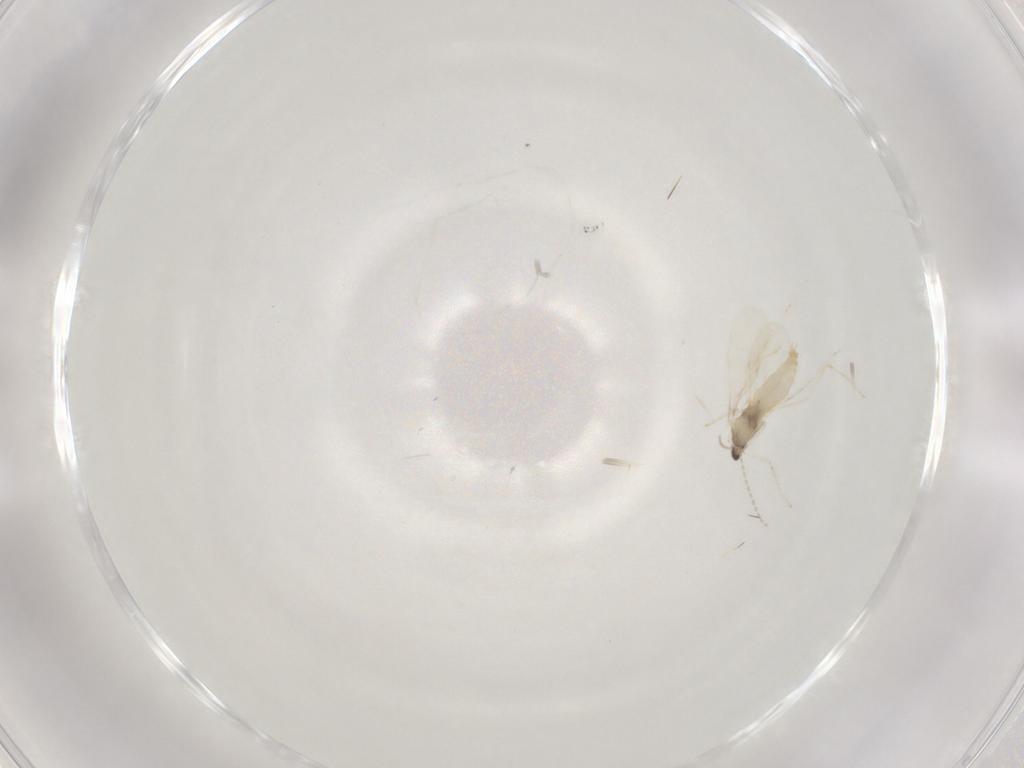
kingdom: Animalia
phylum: Arthropoda
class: Insecta
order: Diptera
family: Cecidomyiidae
